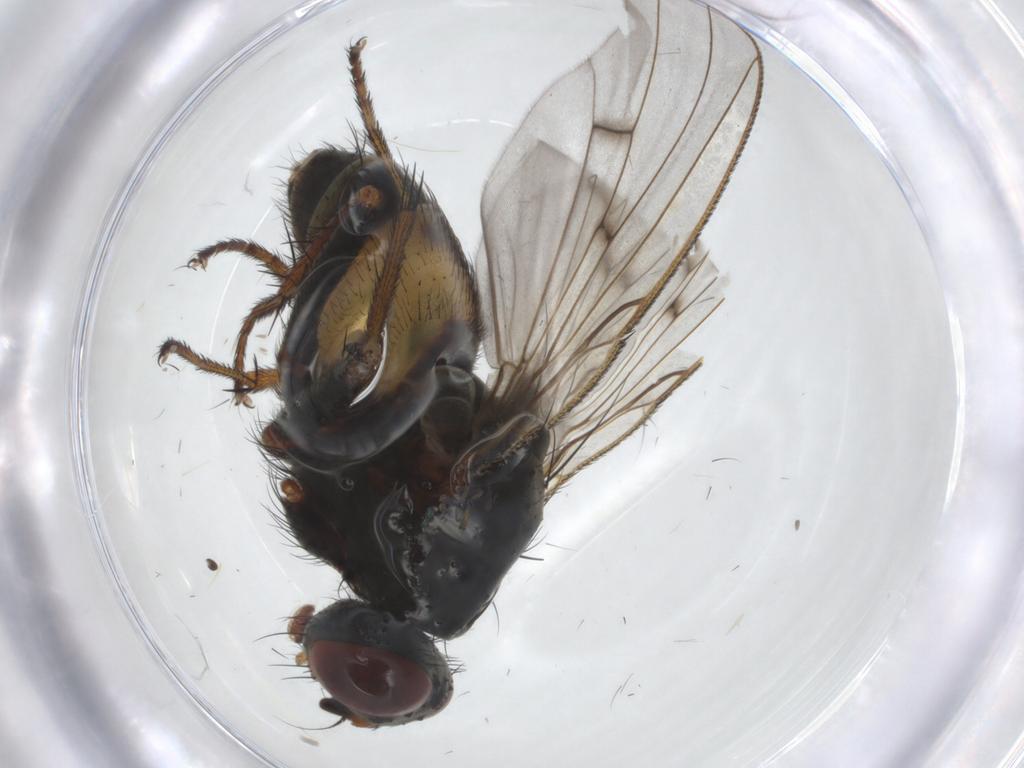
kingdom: Animalia
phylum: Arthropoda
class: Insecta
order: Diptera
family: Muscidae
